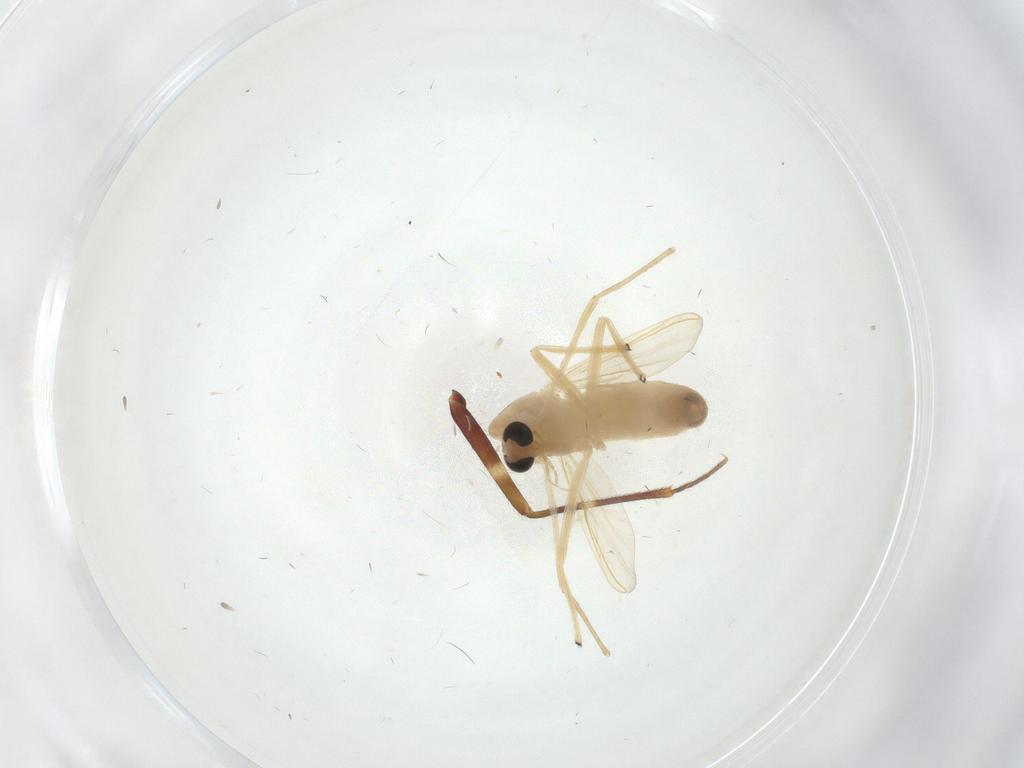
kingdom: Animalia
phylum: Arthropoda
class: Insecta
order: Diptera
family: Chironomidae
